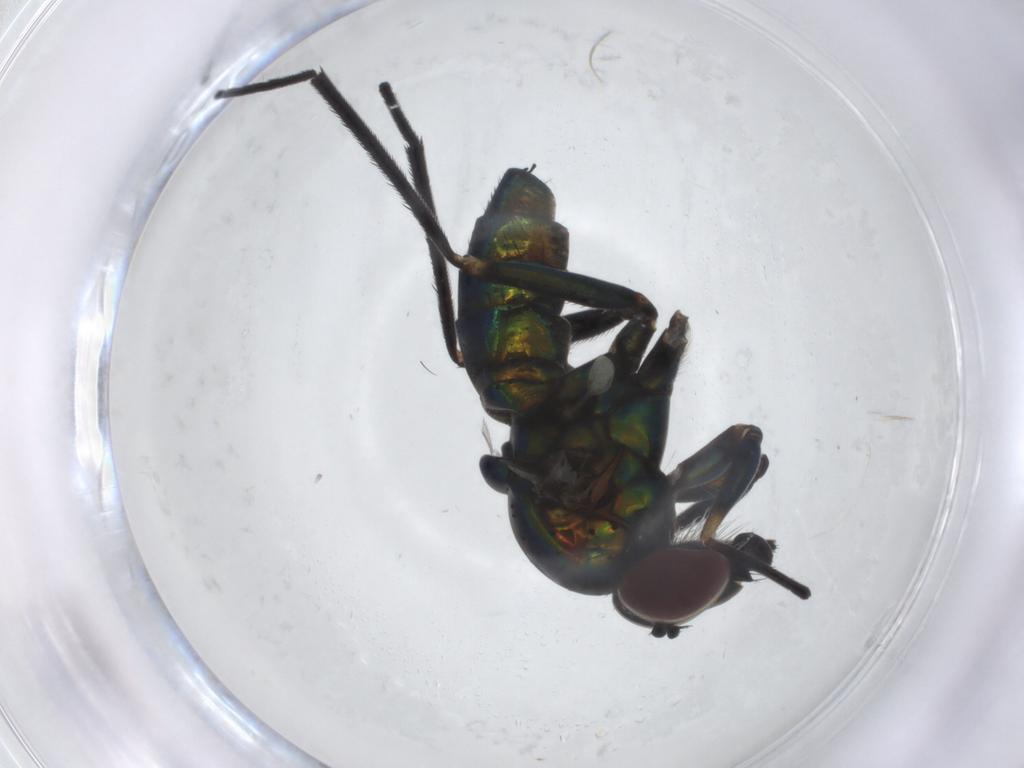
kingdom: Animalia
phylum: Arthropoda
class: Insecta
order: Diptera
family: Dolichopodidae
